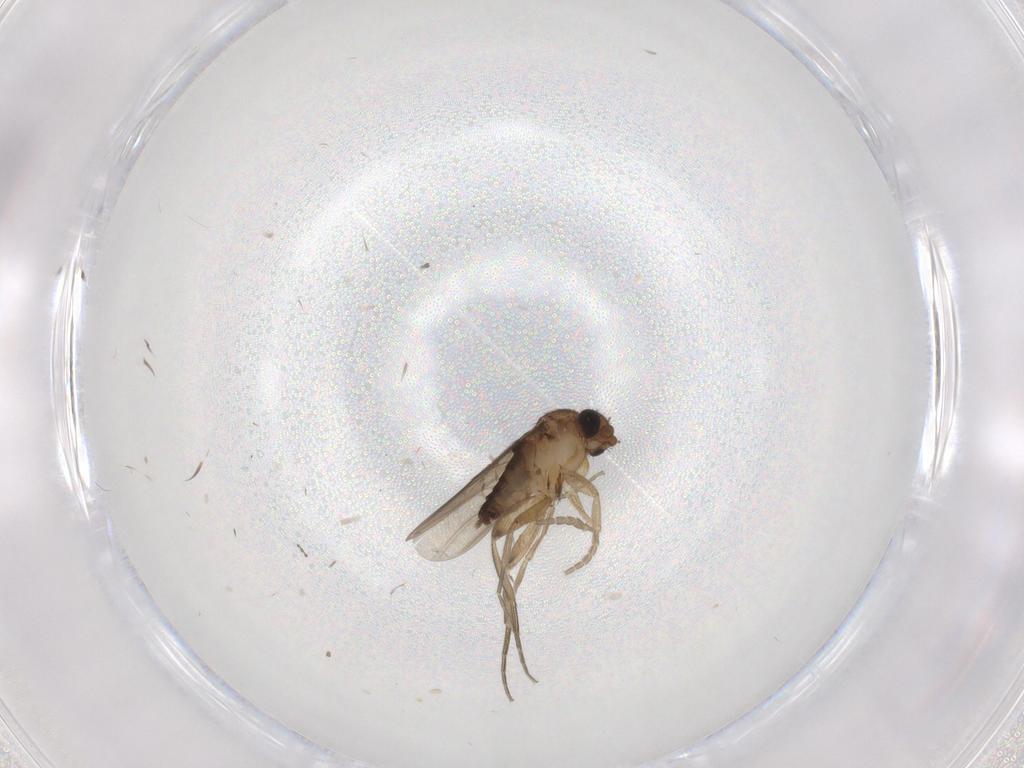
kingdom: Animalia
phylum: Arthropoda
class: Insecta
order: Diptera
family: Phoridae
